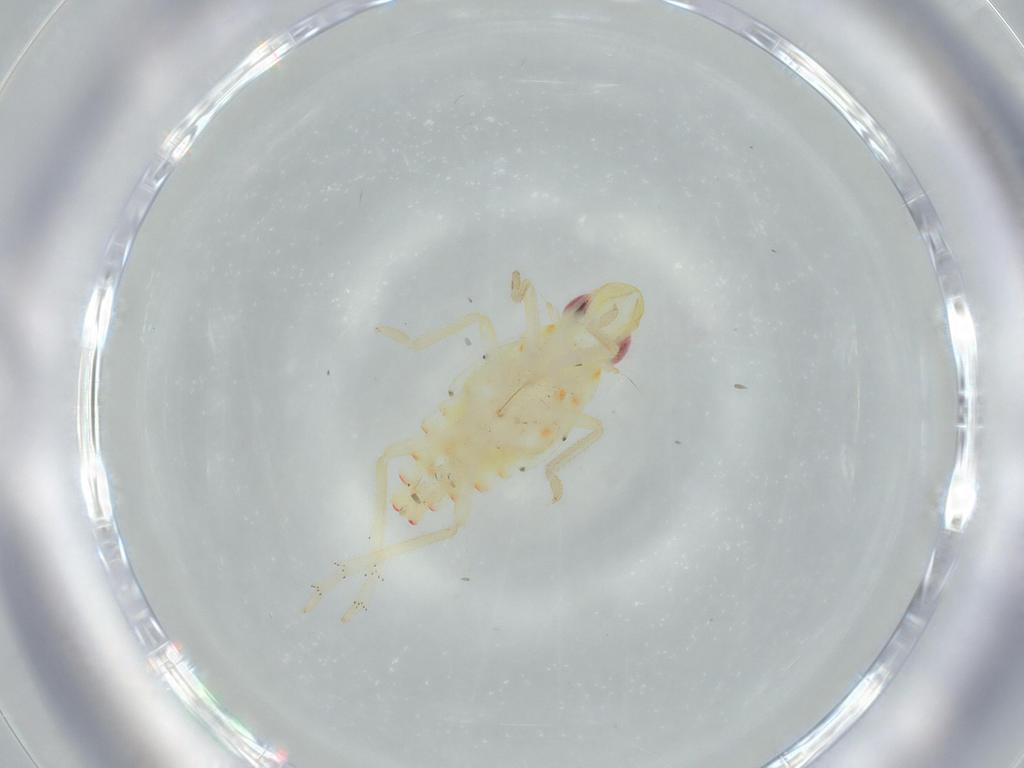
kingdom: Animalia
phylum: Arthropoda
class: Insecta
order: Hemiptera
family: Tropiduchidae
